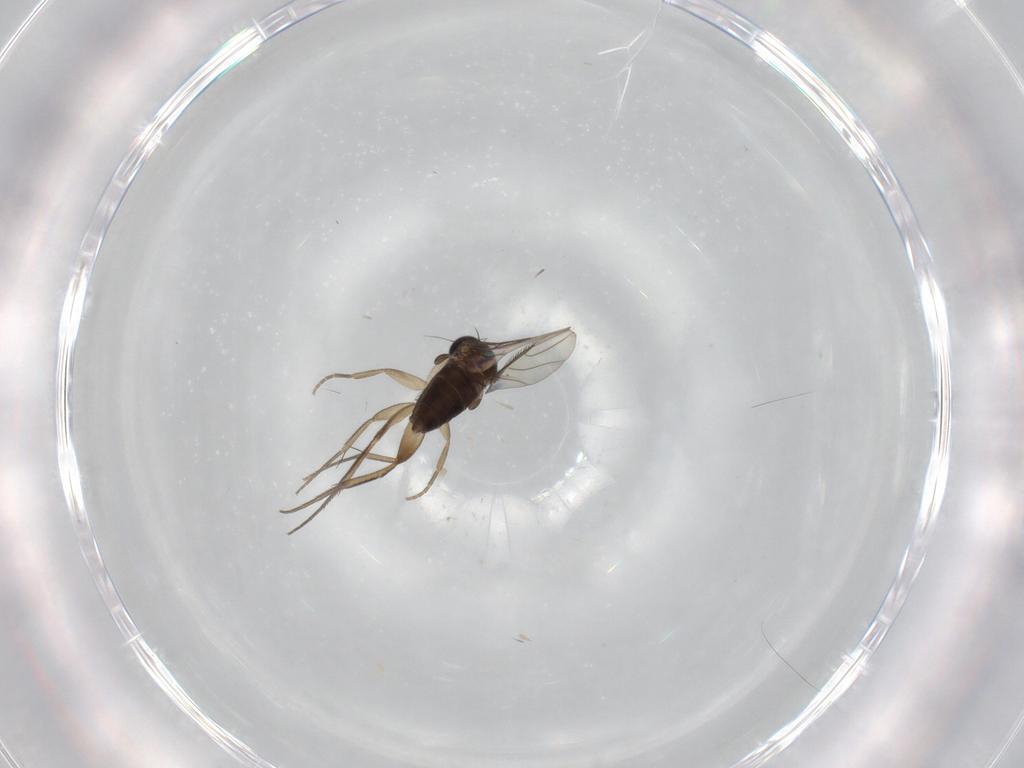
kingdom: Animalia
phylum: Arthropoda
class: Insecta
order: Diptera
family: Phoridae
